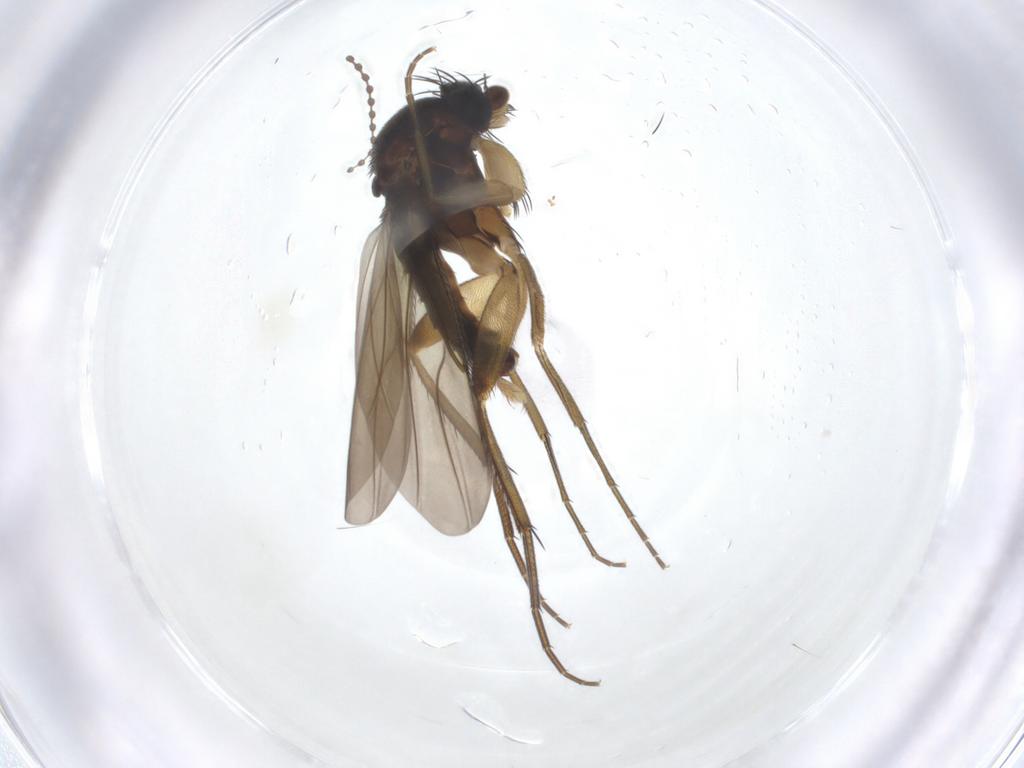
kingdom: Animalia
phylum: Arthropoda
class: Insecta
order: Diptera
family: Phoridae
